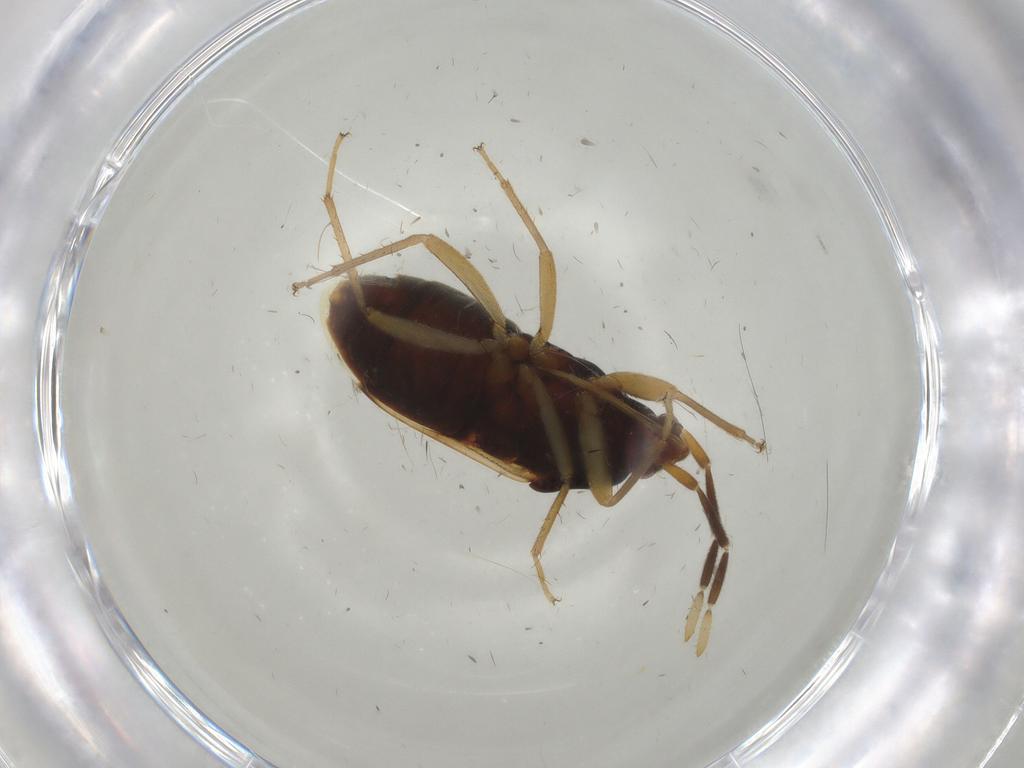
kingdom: Animalia
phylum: Arthropoda
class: Insecta
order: Hemiptera
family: Rhyparochromidae
